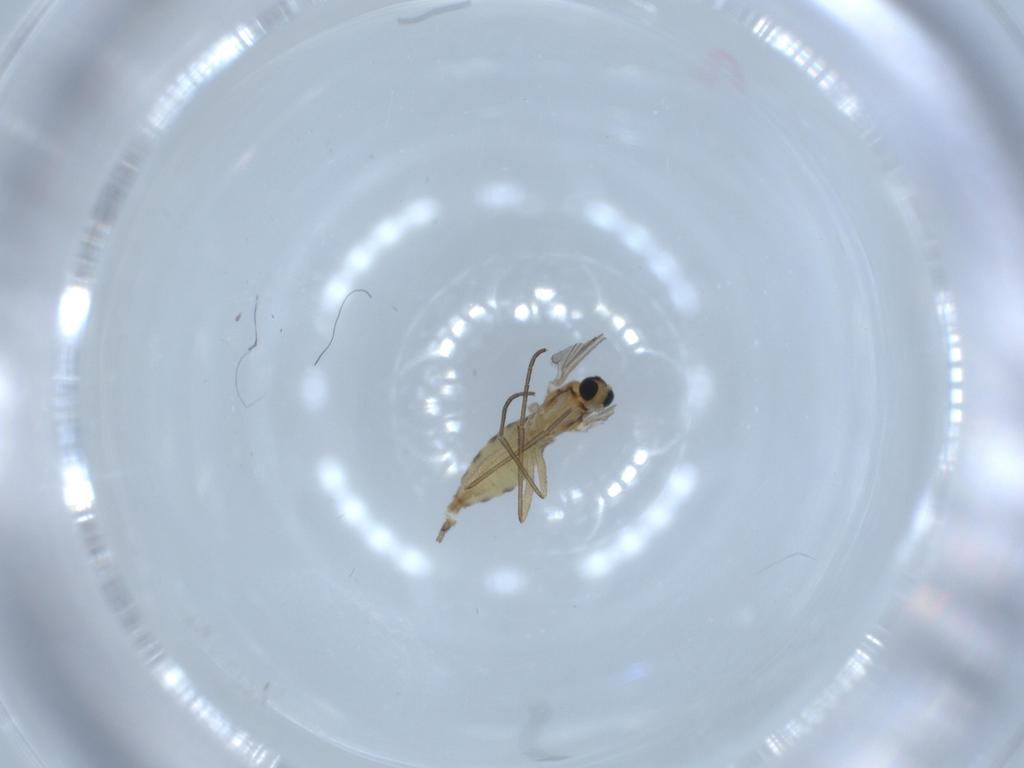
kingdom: Animalia
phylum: Arthropoda
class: Insecta
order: Diptera
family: Sciaridae
